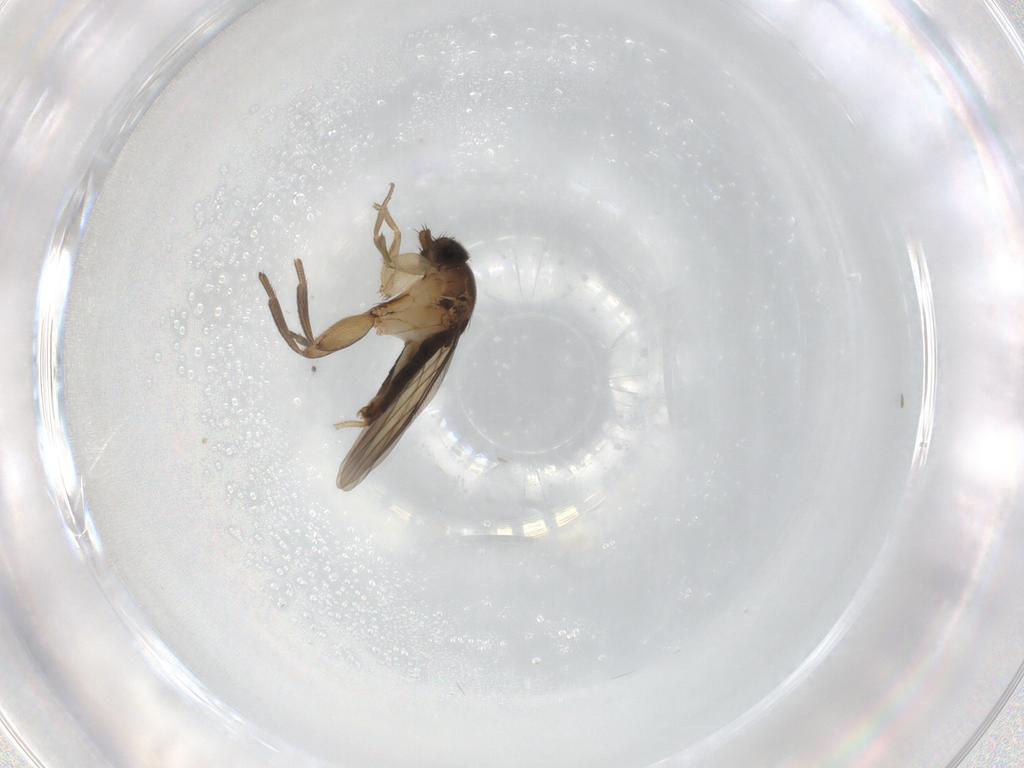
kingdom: Animalia
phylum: Arthropoda
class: Insecta
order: Diptera
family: Phoridae
